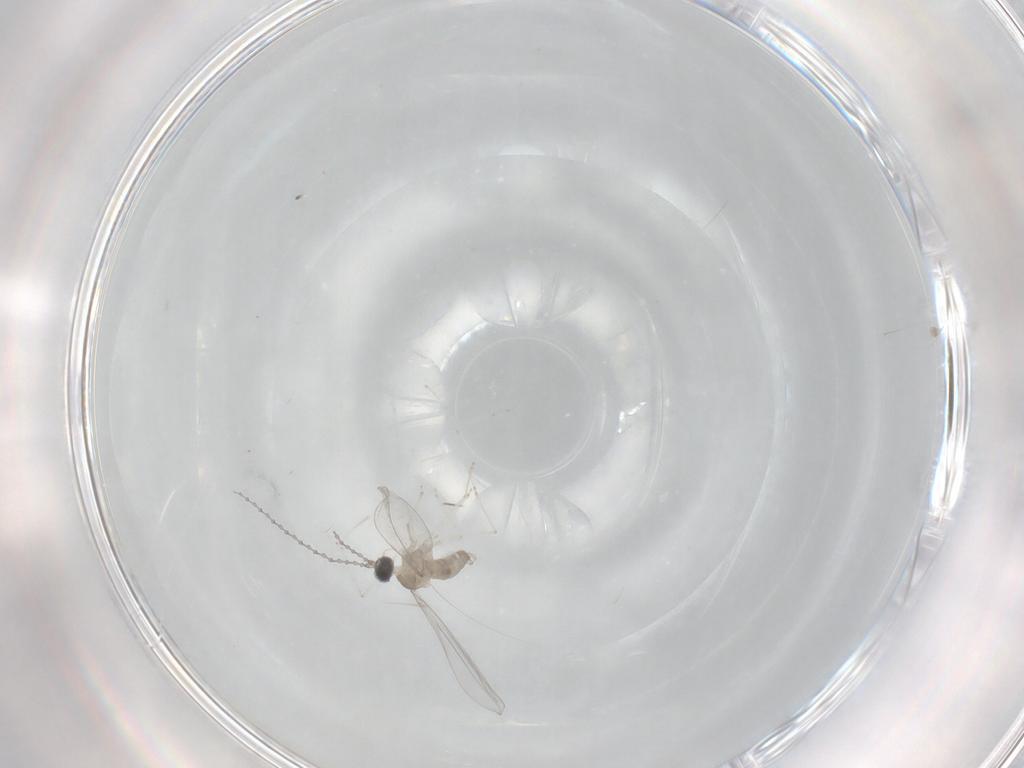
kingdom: Animalia
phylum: Arthropoda
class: Insecta
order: Diptera
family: Cecidomyiidae
